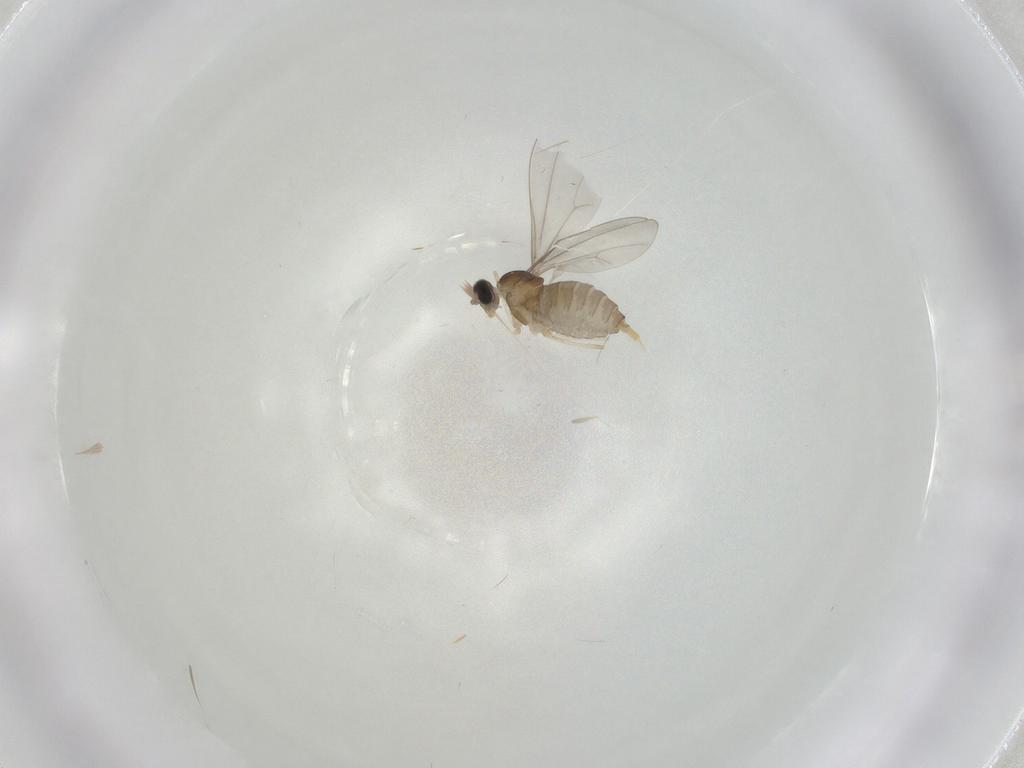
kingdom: Animalia
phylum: Arthropoda
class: Insecta
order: Diptera
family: Cecidomyiidae
